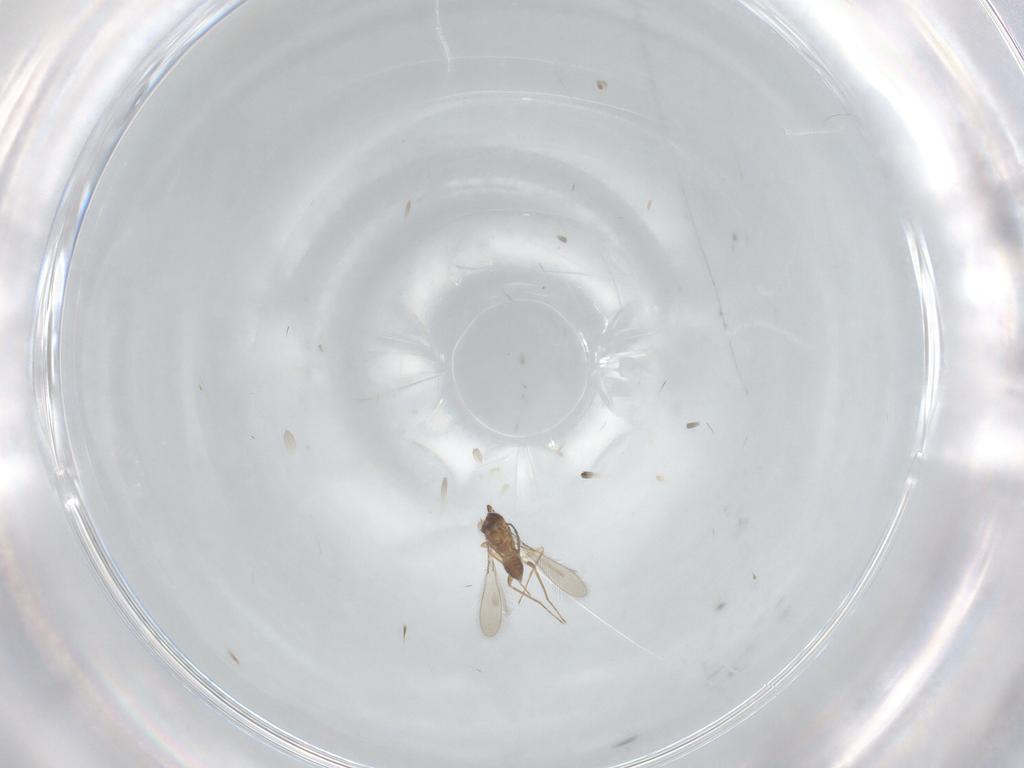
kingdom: Animalia
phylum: Arthropoda
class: Insecta
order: Hymenoptera
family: Mymaridae
